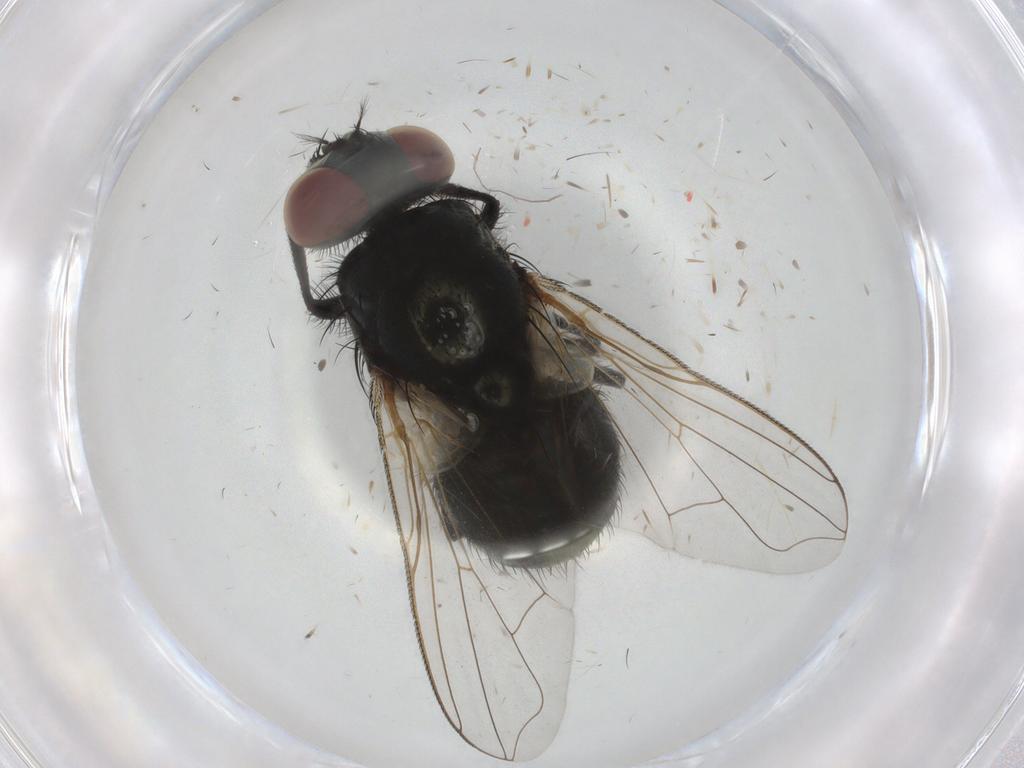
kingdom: Animalia
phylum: Arthropoda
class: Insecta
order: Diptera
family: Chironomidae
